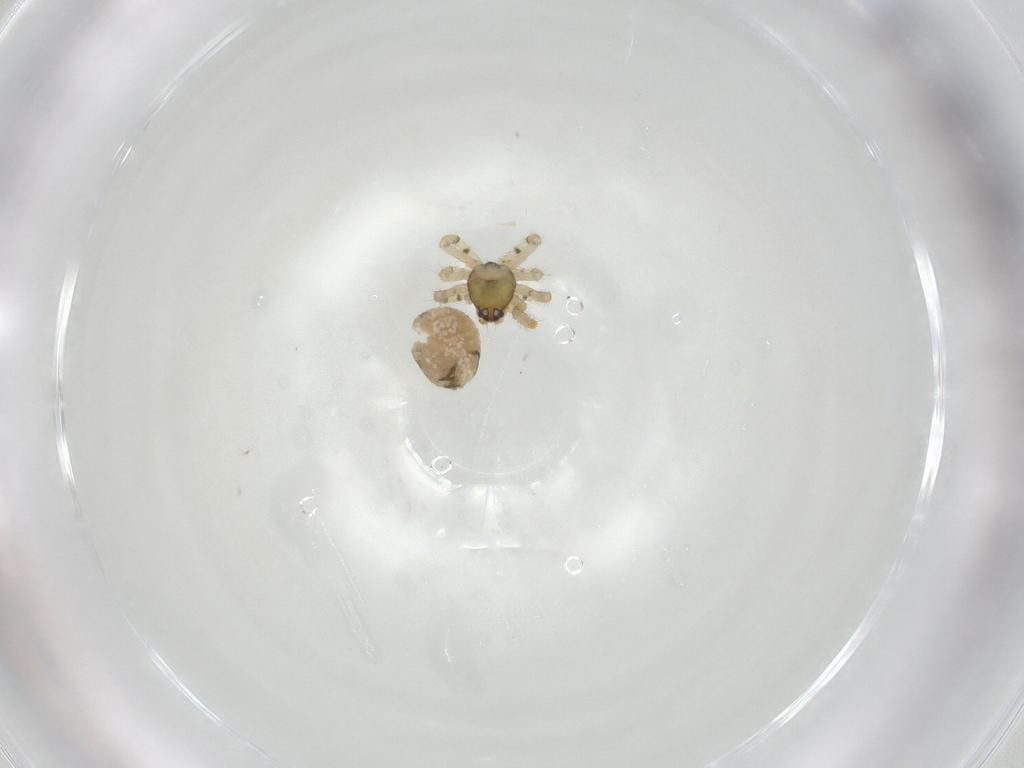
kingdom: Animalia
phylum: Arthropoda
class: Arachnida
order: Araneae
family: Theridiidae
